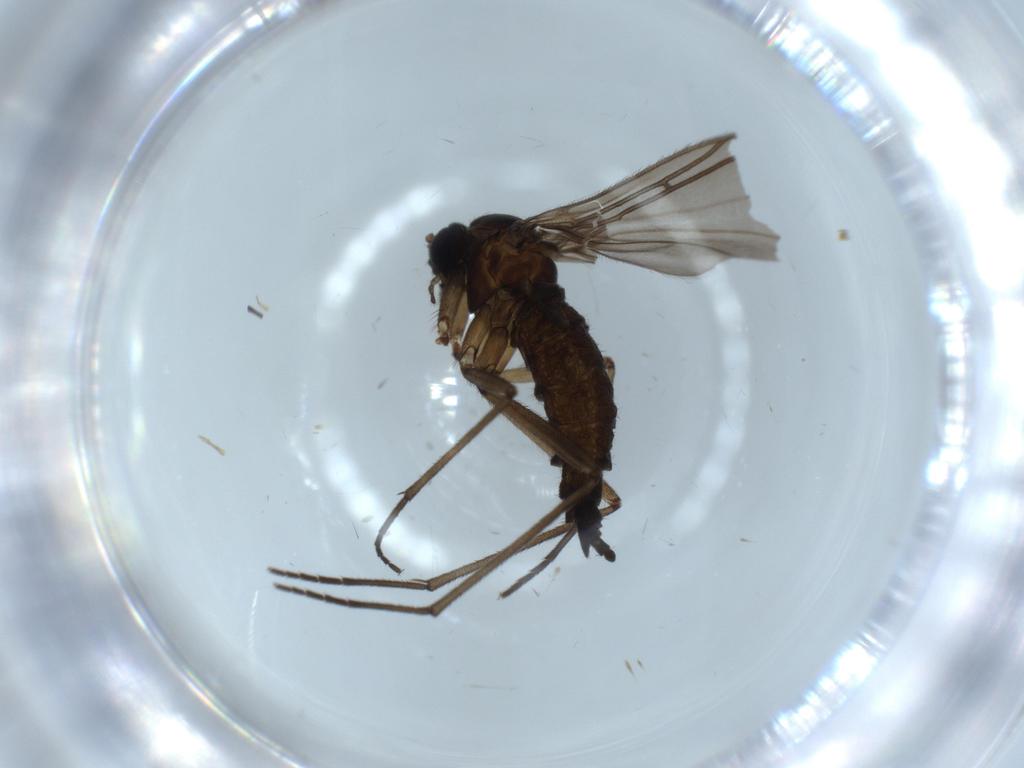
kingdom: Animalia
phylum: Arthropoda
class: Insecta
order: Diptera
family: Sciaridae
